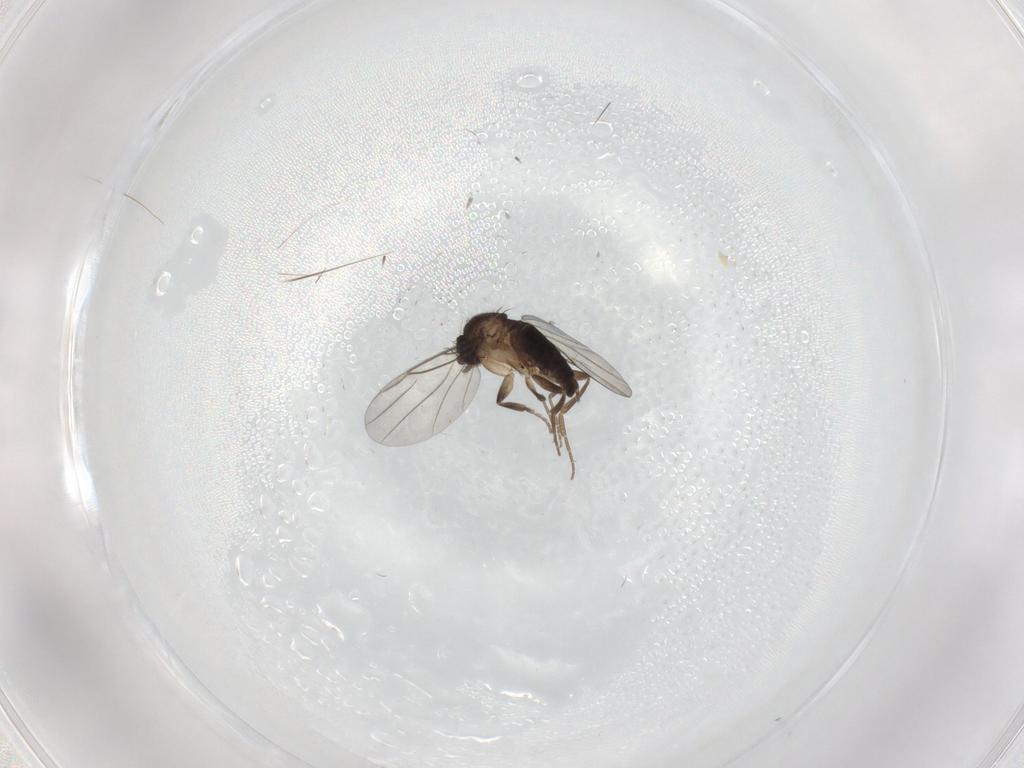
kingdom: Animalia
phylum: Arthropoda
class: Insecta
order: Diptera
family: Phoridae
